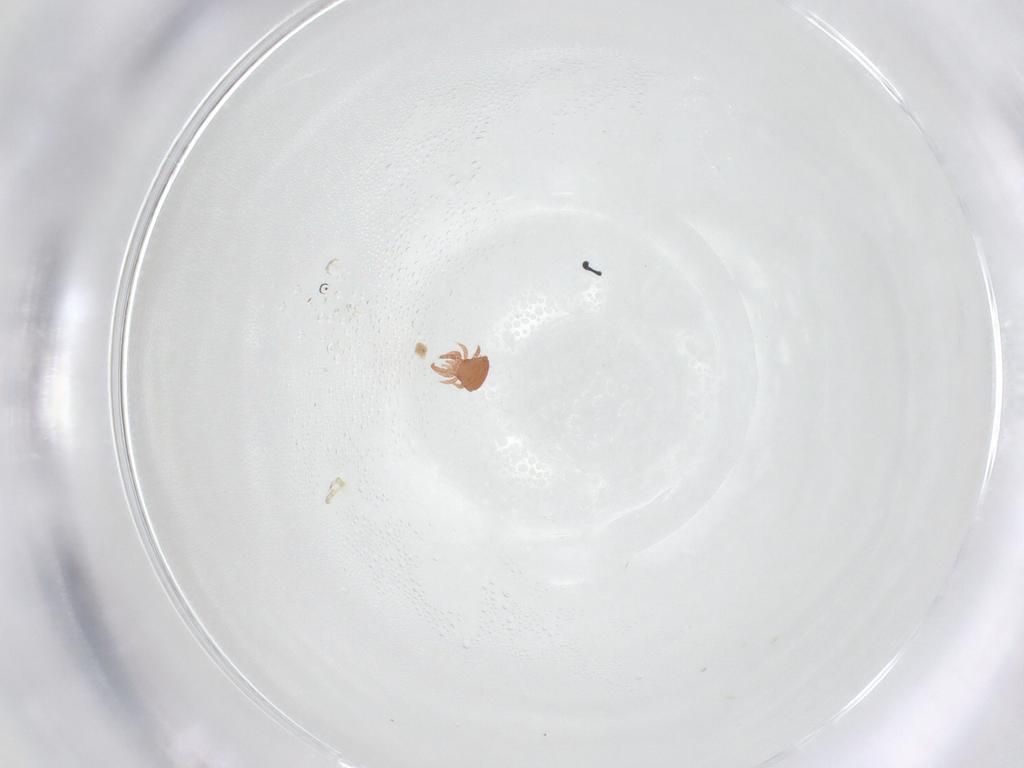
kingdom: Animalia
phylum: Arthropoda
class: Arachnida
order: Mesostigmata
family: Zerconidae
